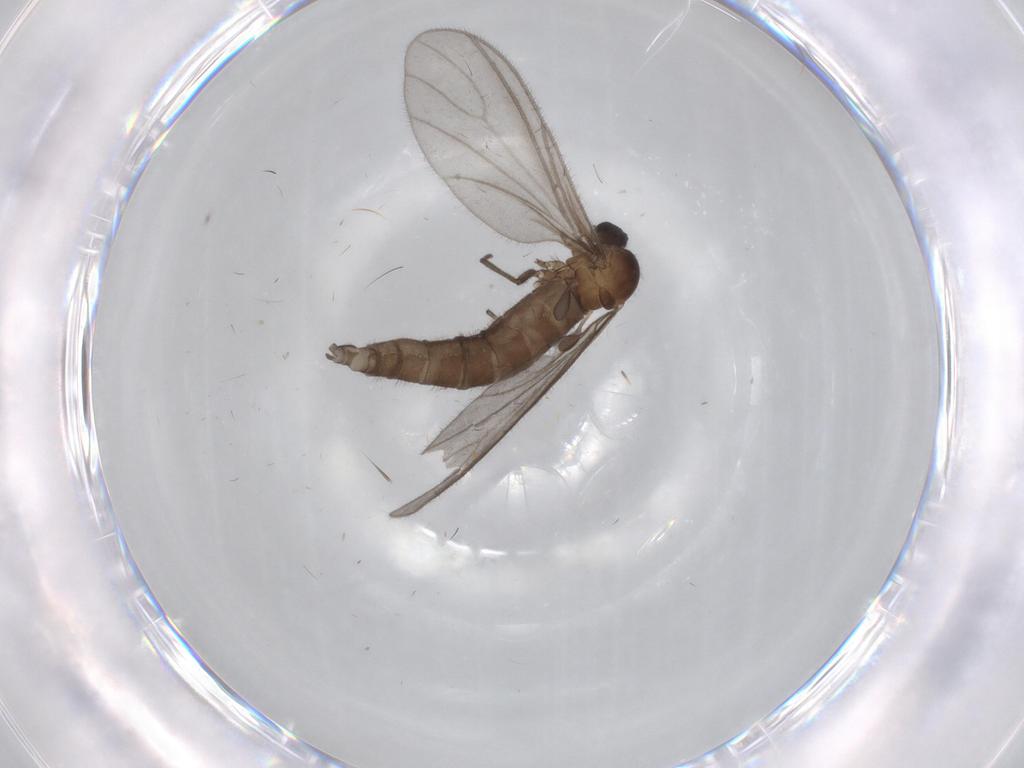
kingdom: Animalia
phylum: Arthropoda
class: Insecta
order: Diptera
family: Sciaridae
